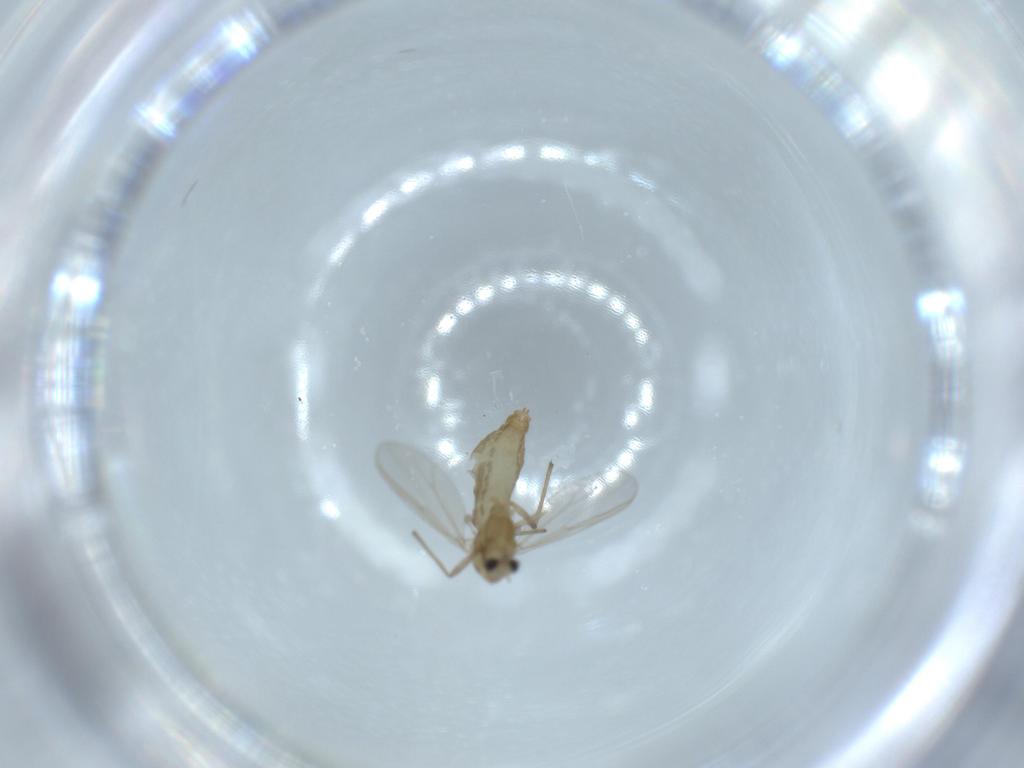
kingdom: Animalia
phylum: Arthropoda
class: Insecta
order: Diptera
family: Chironomidae
